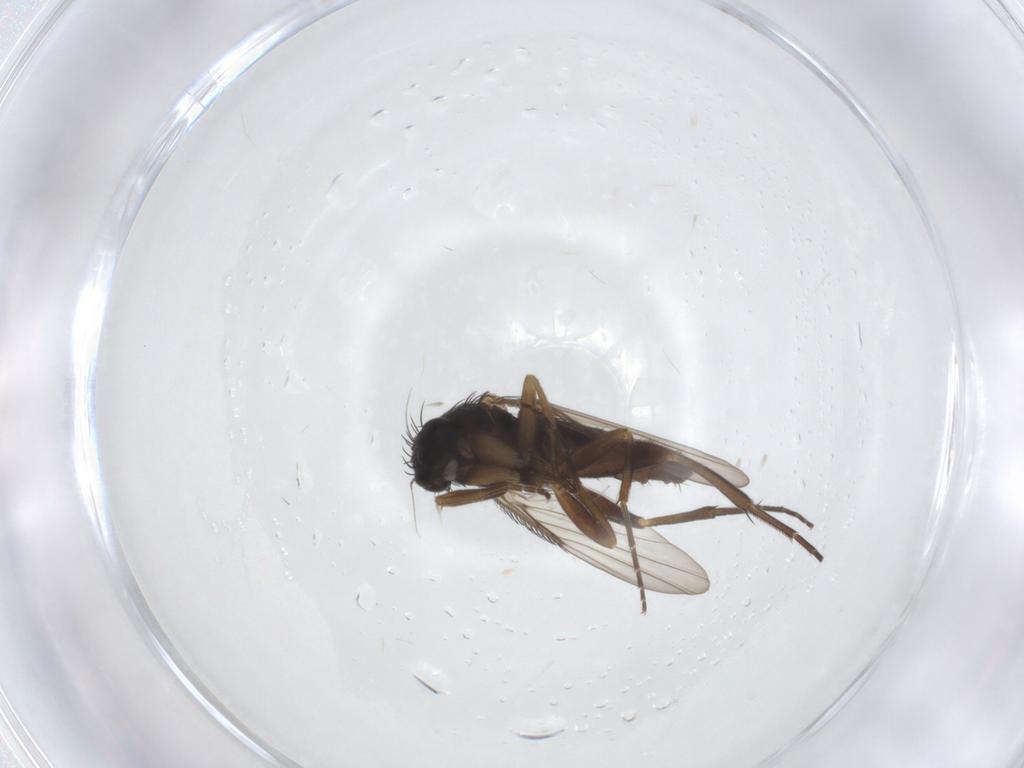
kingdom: Animalia
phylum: Arthropoda
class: Insecta
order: Diptera
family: Phoridae
